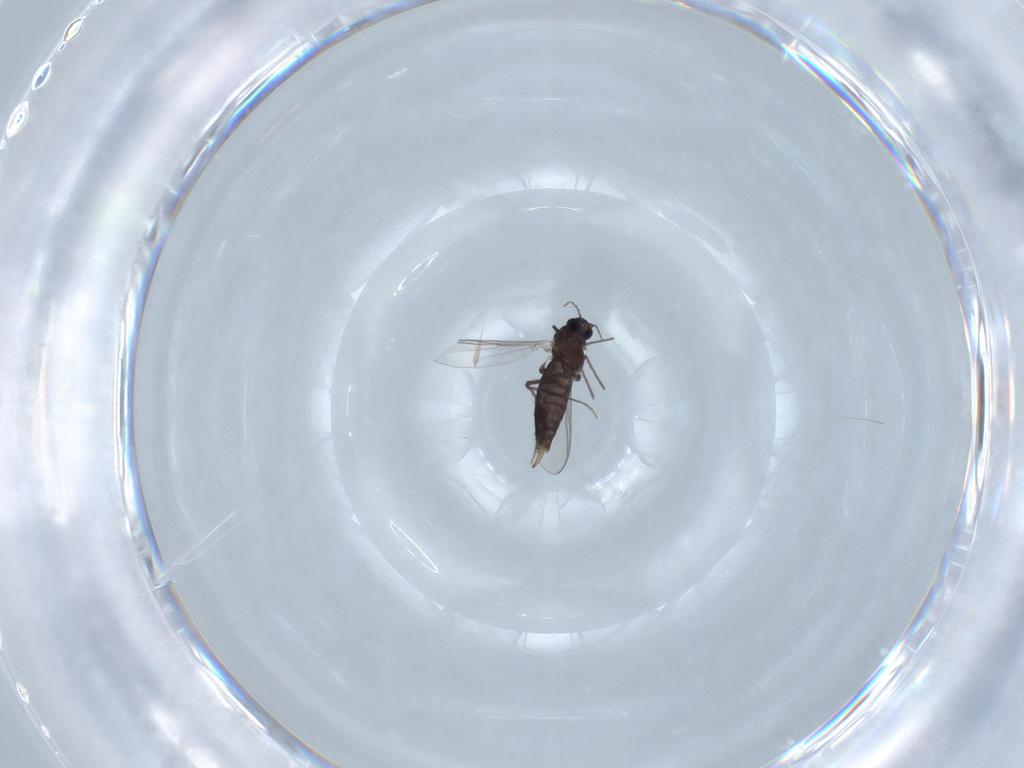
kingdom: Animalia
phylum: Arthropoda
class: Insecta
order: Diptera
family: Chironomidae
